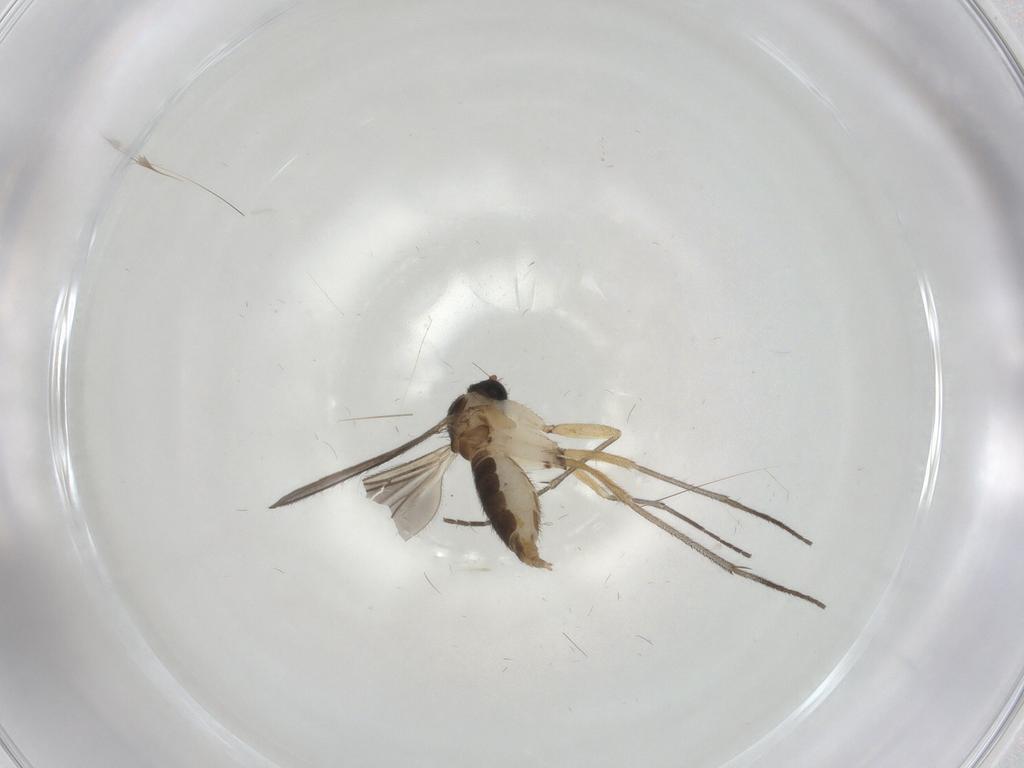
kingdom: Animalia
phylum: Arthropoda
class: Insecta
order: Diptera
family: Sciaridae
